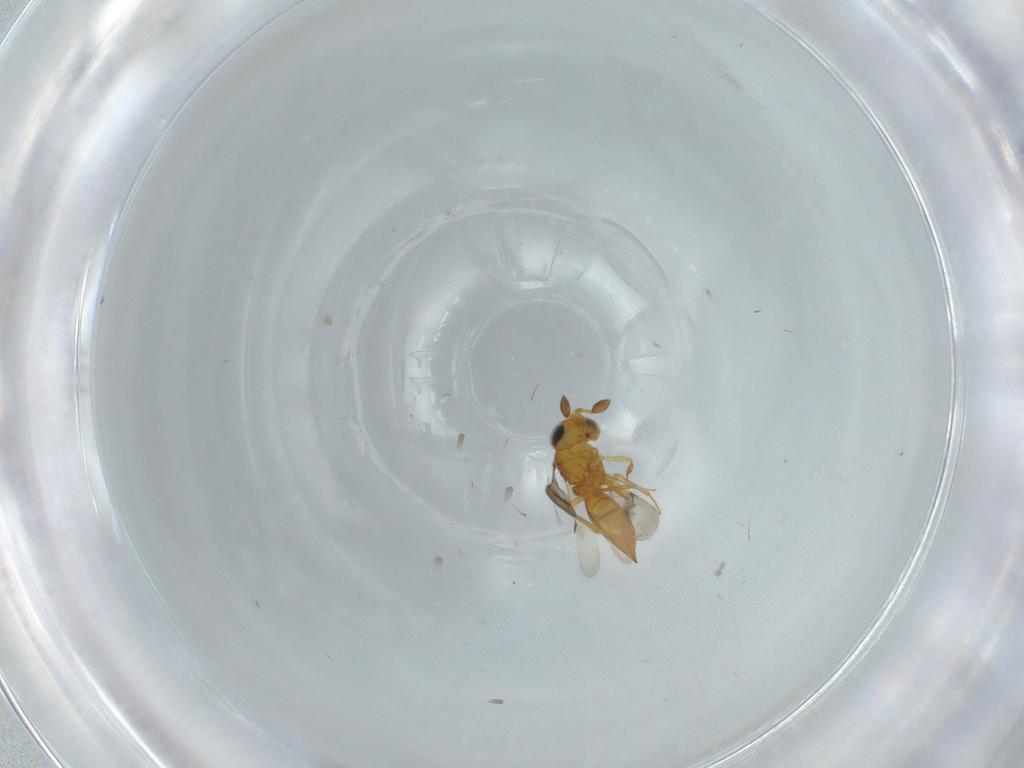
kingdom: Animalia
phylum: Arthropoda
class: Insecta
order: Hymenoptera
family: Scelionidae
